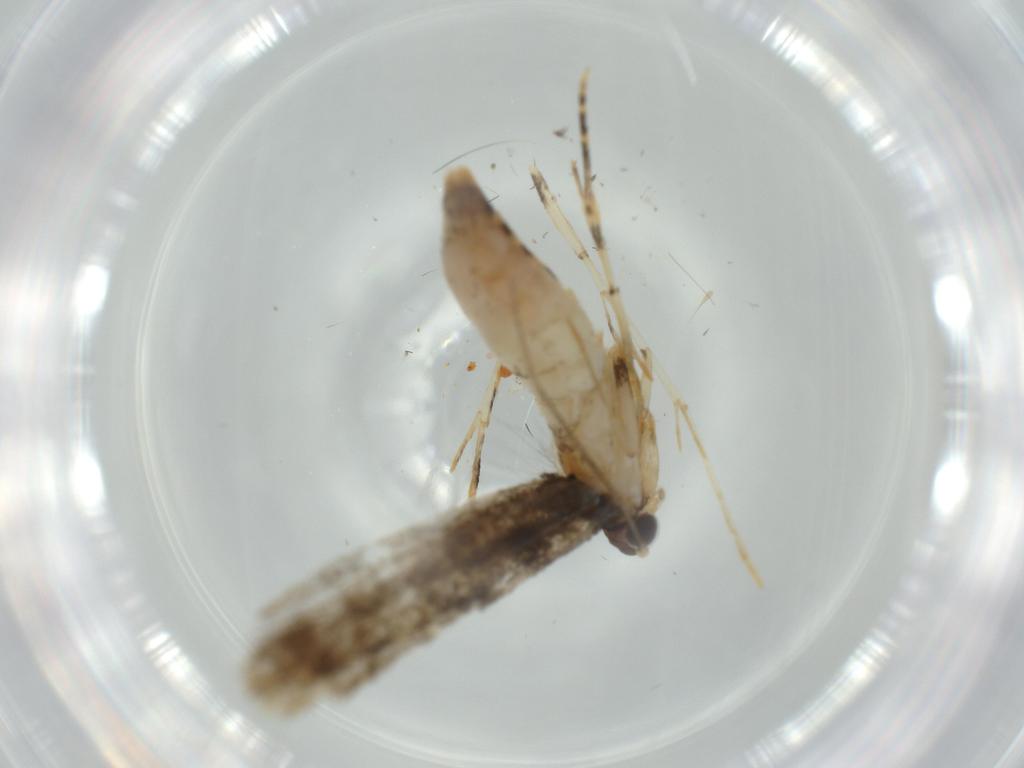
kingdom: Animalia
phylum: Arthropoda
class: Insecta
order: Lepidoptera
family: Tineidae
